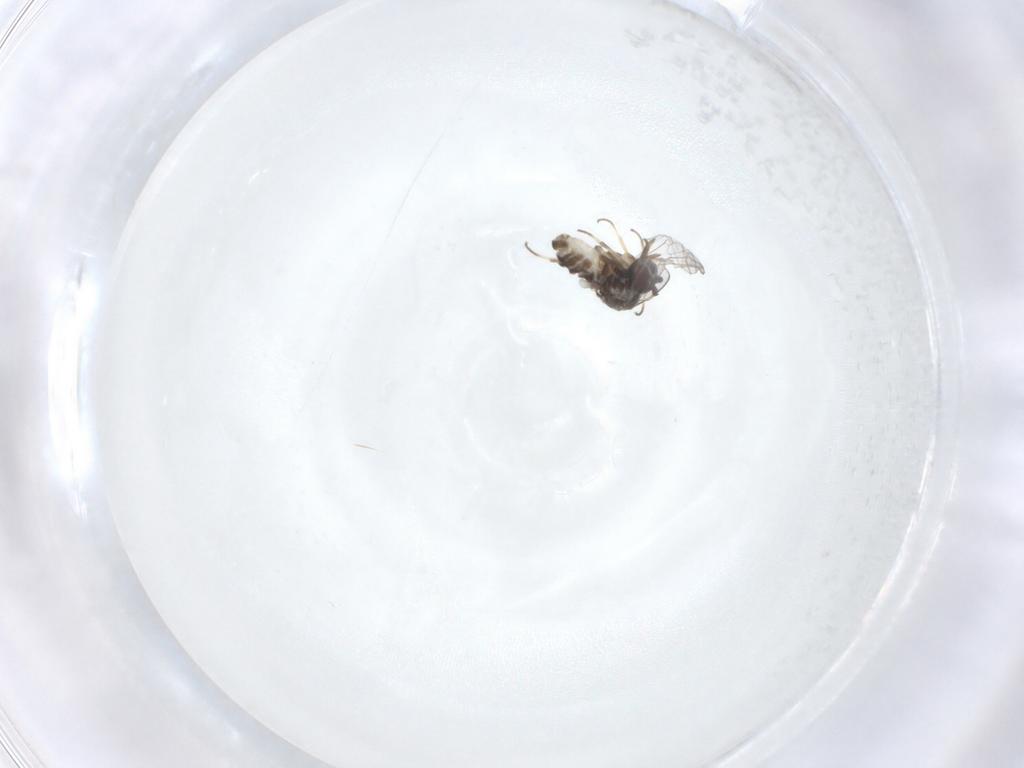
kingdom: Animalia
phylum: Arthropoda
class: Insecta
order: Diptera
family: Mythicomyiidae
